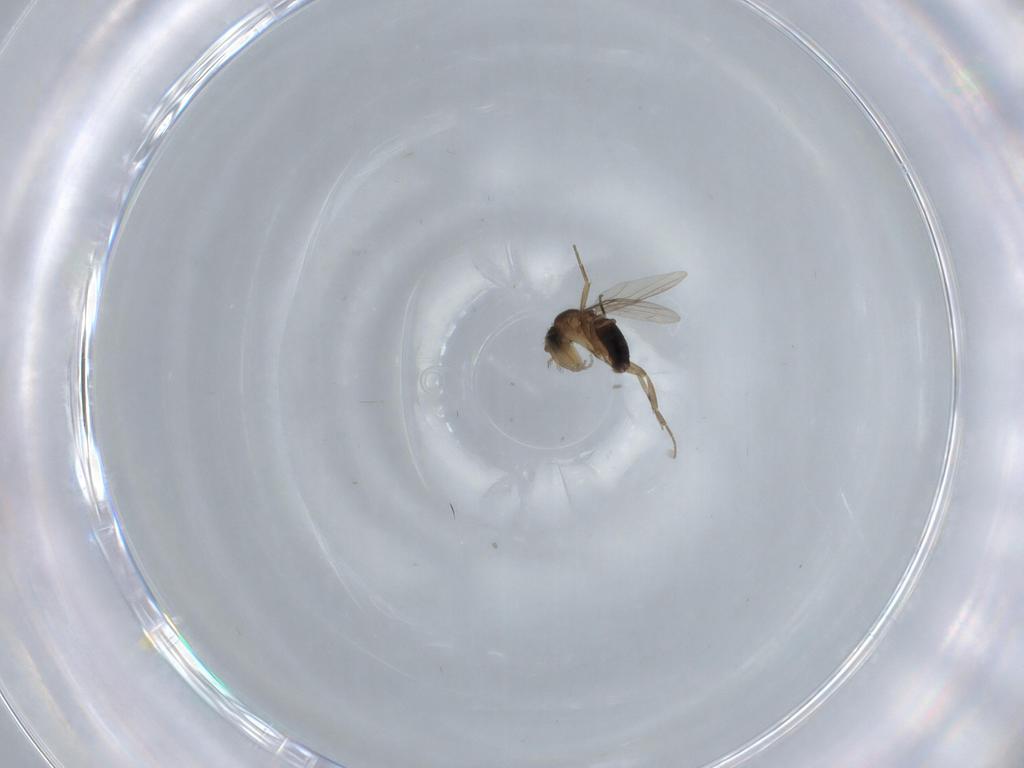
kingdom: Animalia
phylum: Arthropoda
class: Insecta
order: Diptera
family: Phoridae
